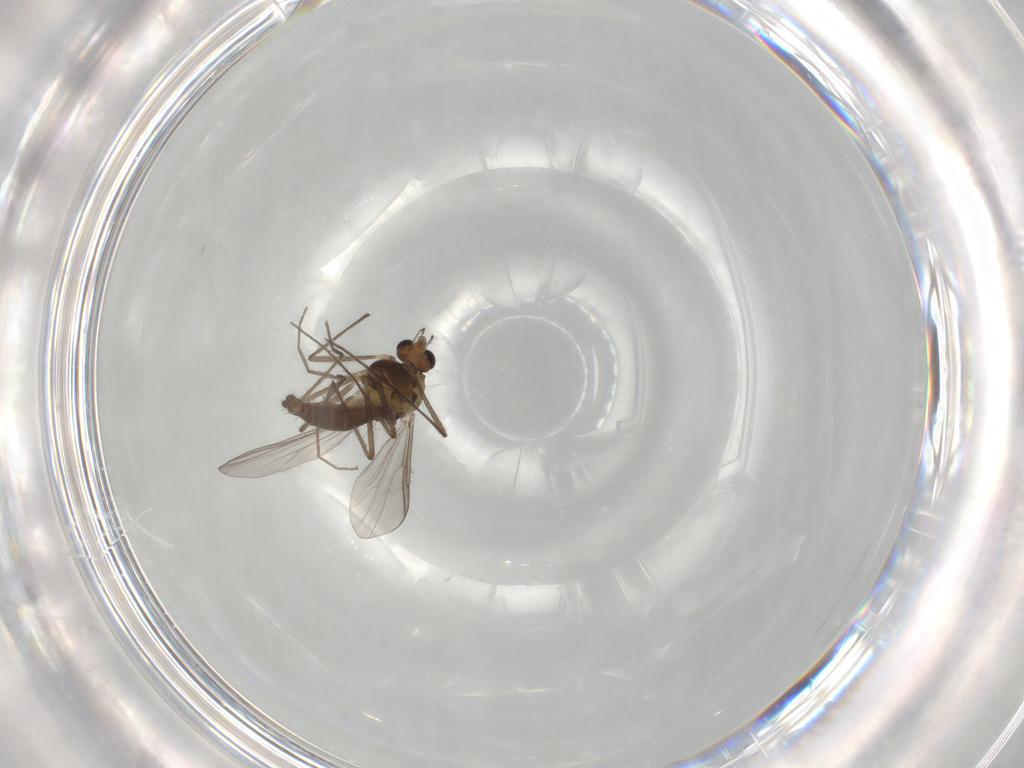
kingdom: Animalia
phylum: Arthropoda
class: Insecta
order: Diptera
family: Chironomidae
